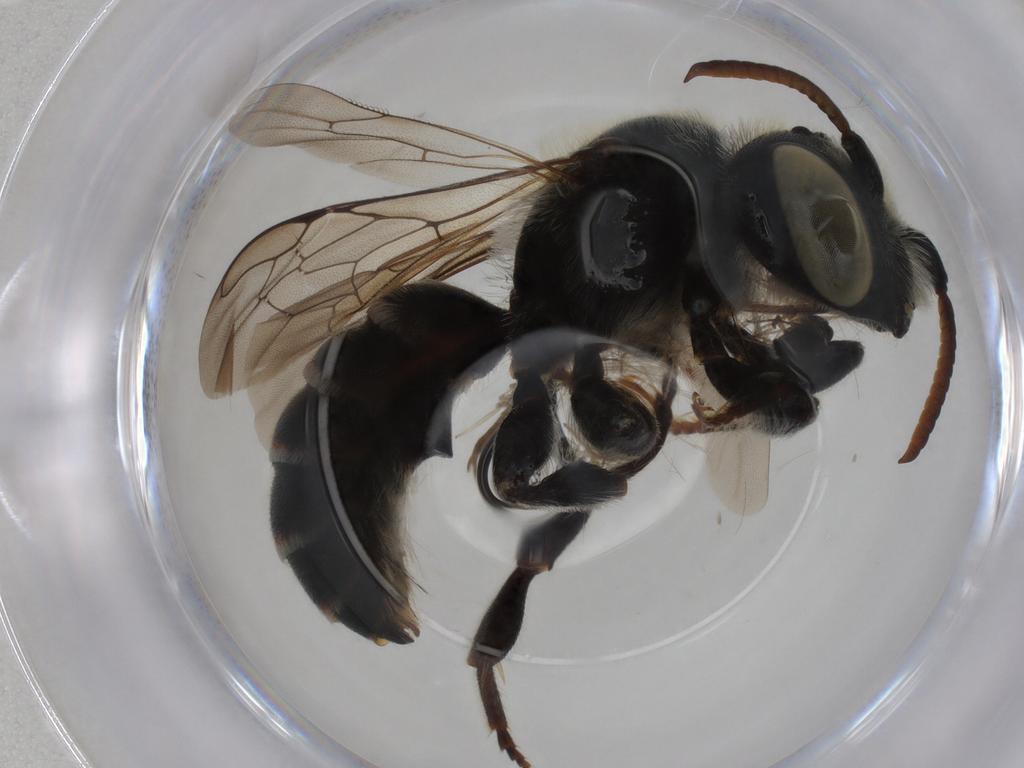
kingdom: Animalia
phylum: Arthropoda
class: Insecta
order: Hymenoptera
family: Megachilidae
